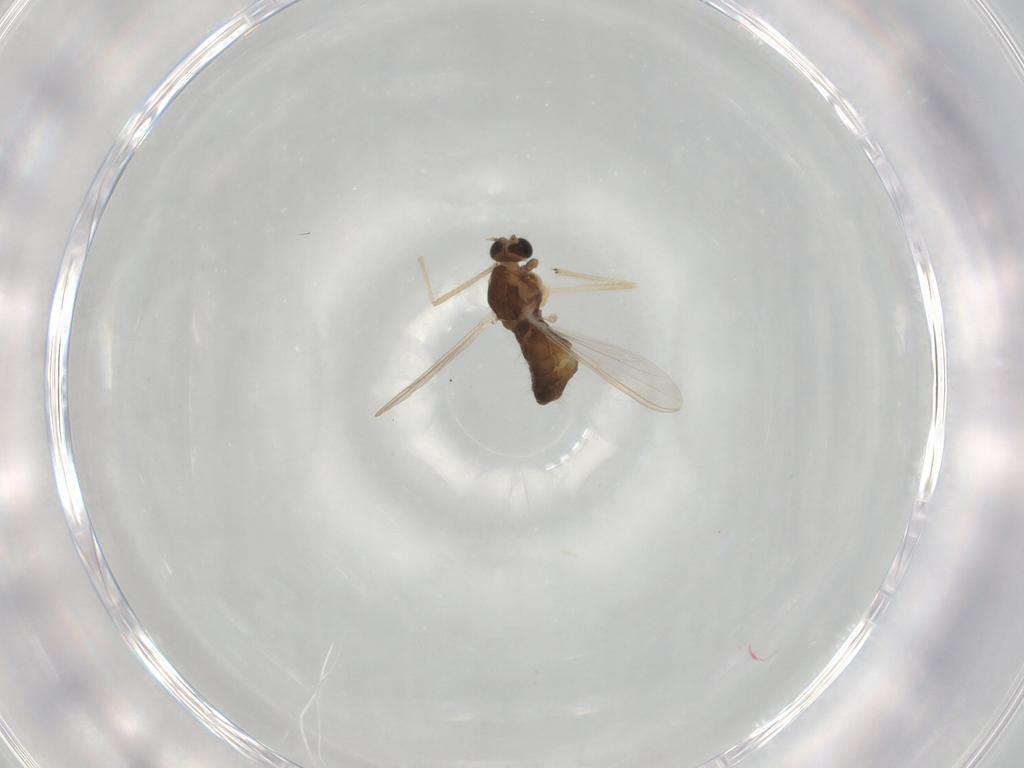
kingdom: Animalia
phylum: Arthropoda
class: Insecta
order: Diptera
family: Chironomidae
